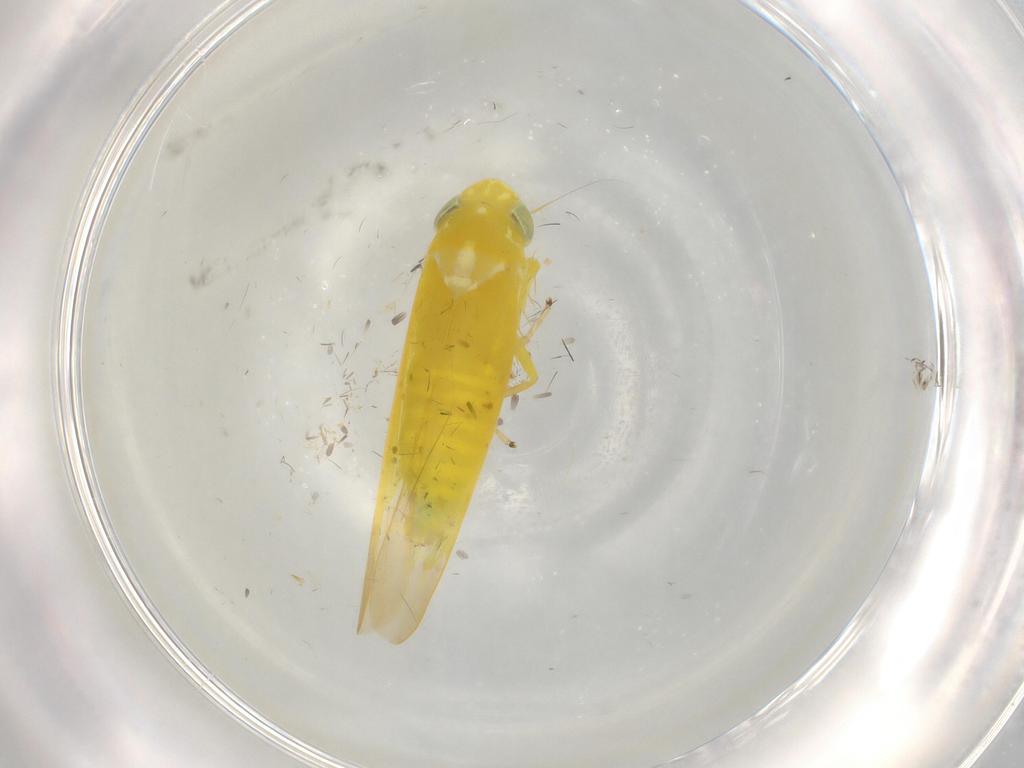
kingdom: Animalia
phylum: Arthropoda
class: Insecta
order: Hemiptera
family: Cicadellidae
